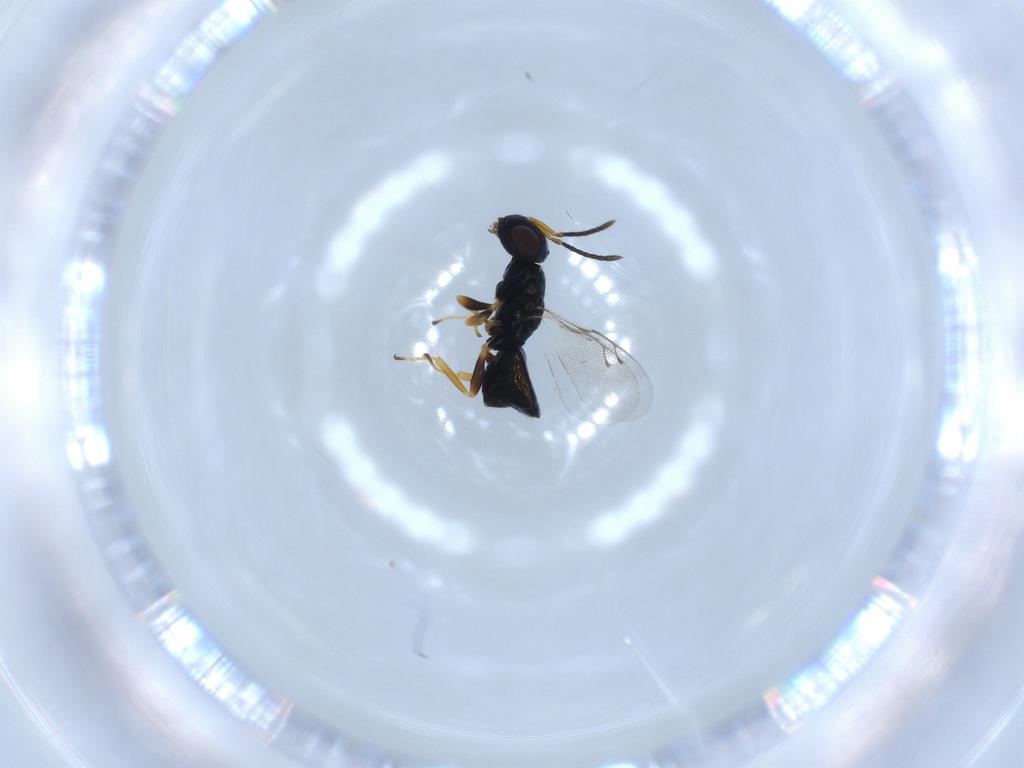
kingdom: Animalia
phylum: Arthropoda
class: Insecta
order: Hymenoptera
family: Pteromalidae
